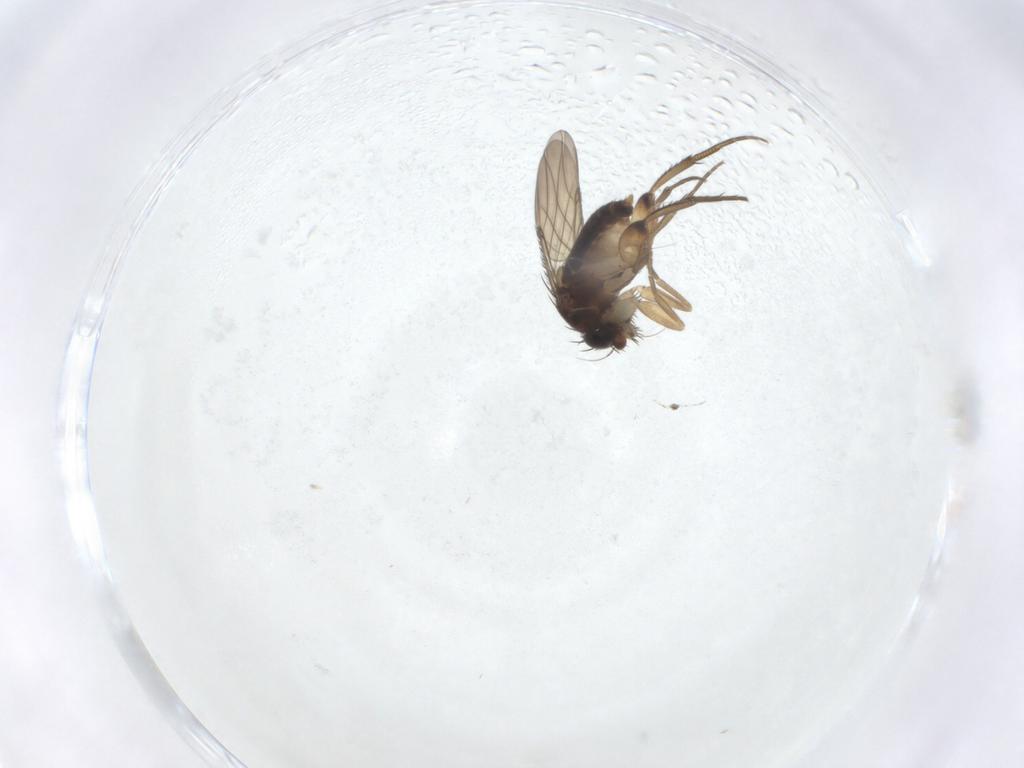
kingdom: Animalia
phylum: Arthropoda
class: Insecta
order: Diptera
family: Phoridae
